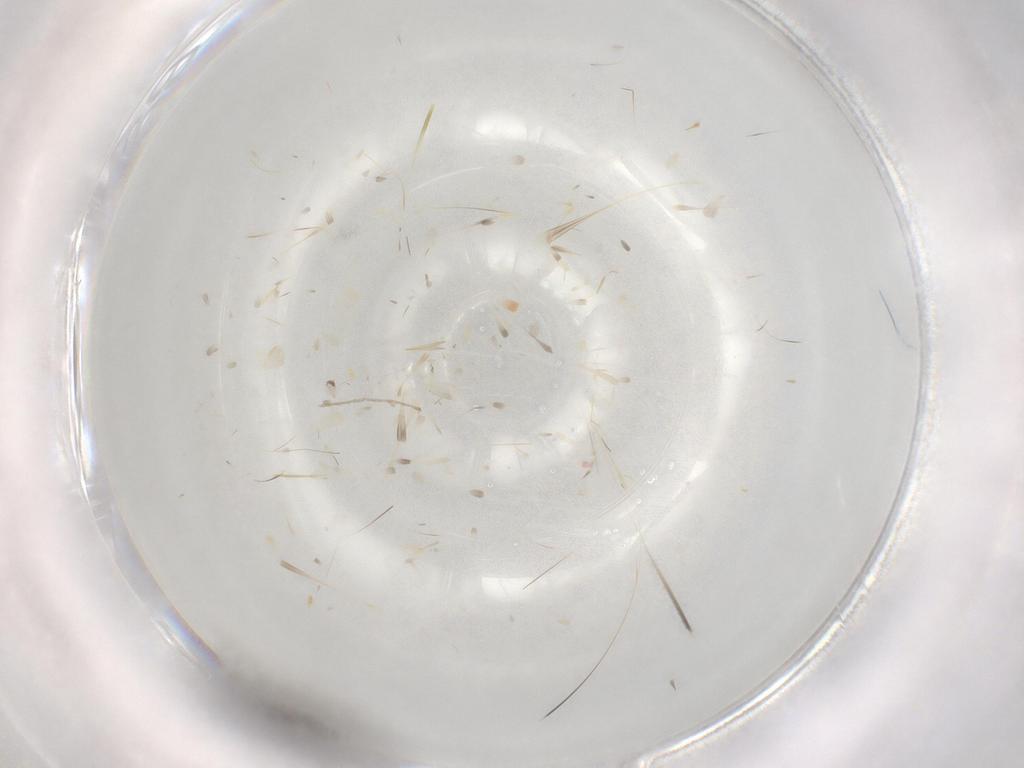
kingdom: Animalia
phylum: Arthropoda
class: Insecta
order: Coleoptera
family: Staphylinidae
